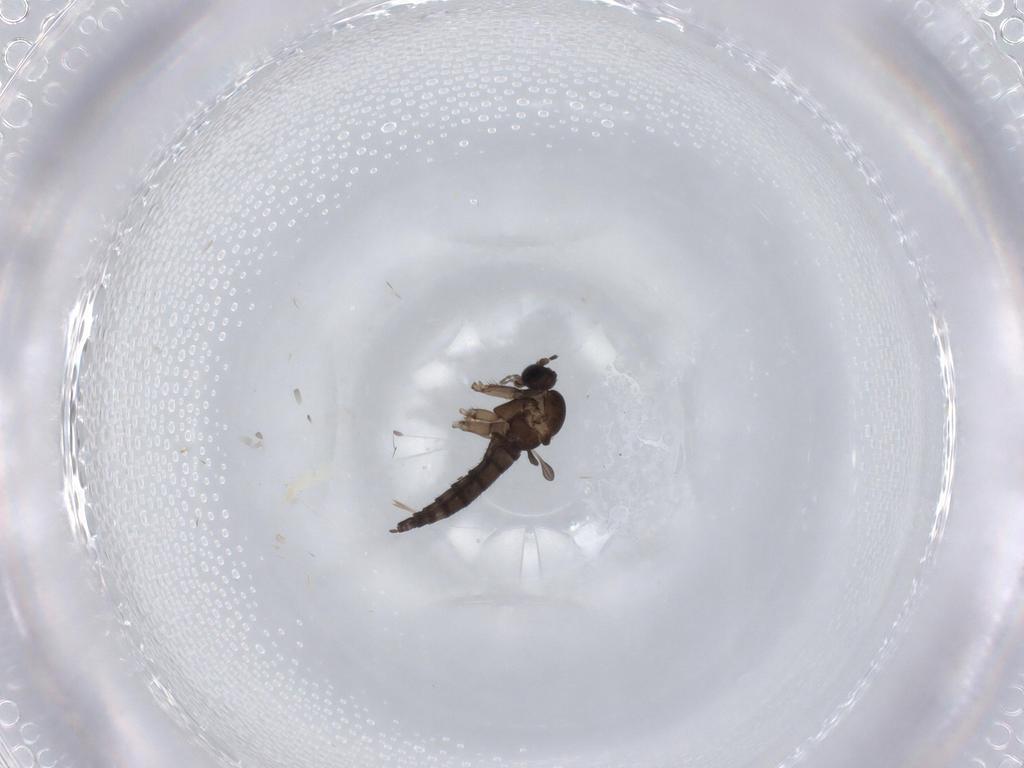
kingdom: Animalia
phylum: Arthropoda
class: Insecta
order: Diptera
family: Sciaridae
